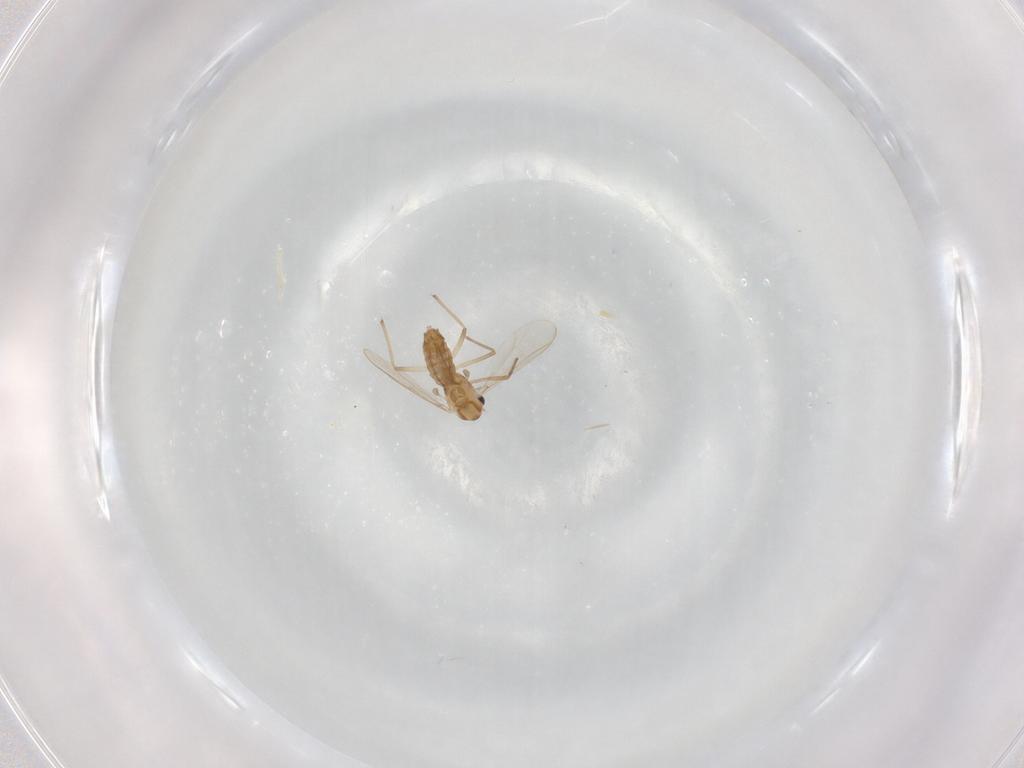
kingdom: Animalia
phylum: Arthropoda
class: Insecta
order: Diptera
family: Chironomidae
